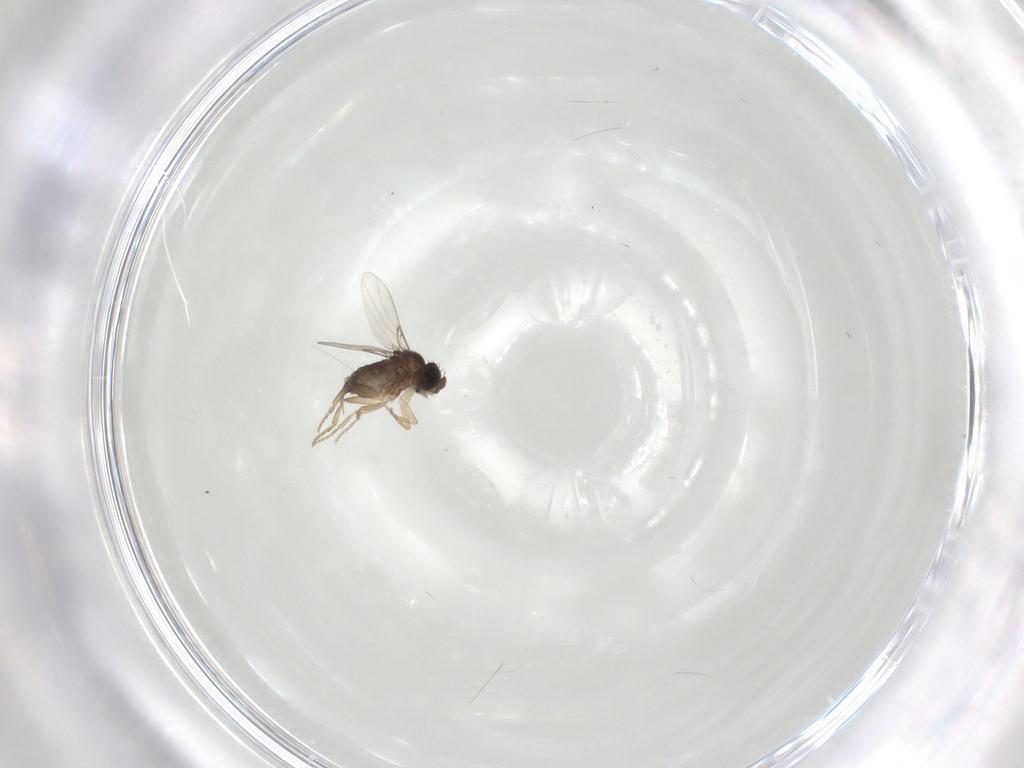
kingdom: Animalia
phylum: Arthropoda
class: Insecta
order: Diptera
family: Phoridae
